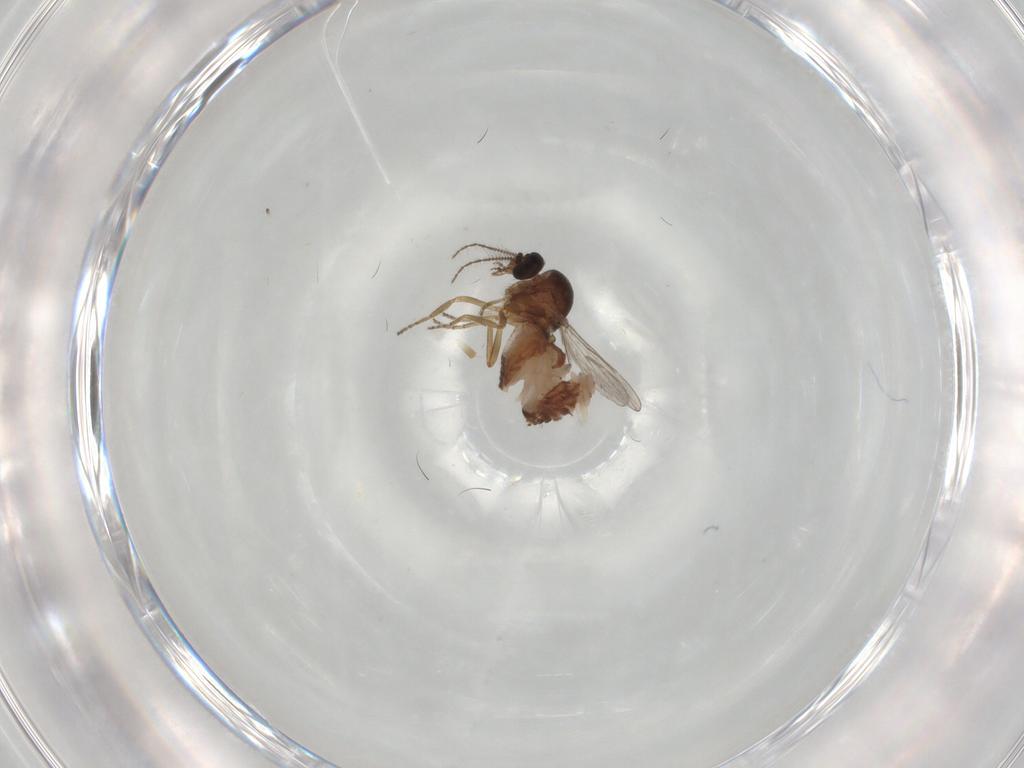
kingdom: Animalia
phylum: Arthropoda
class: Insecta
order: Diptera
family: Ceratopogonidae
